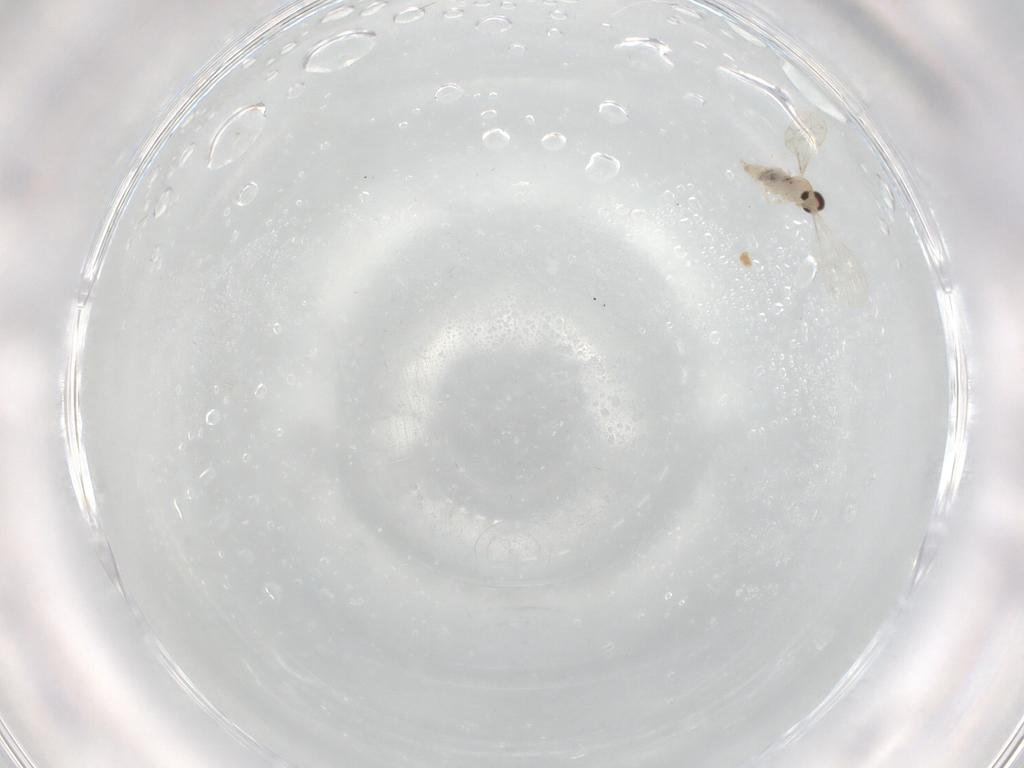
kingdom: Animalia
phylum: Arthropoda
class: Insecta
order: Diptera
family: Cecidomyiidae
